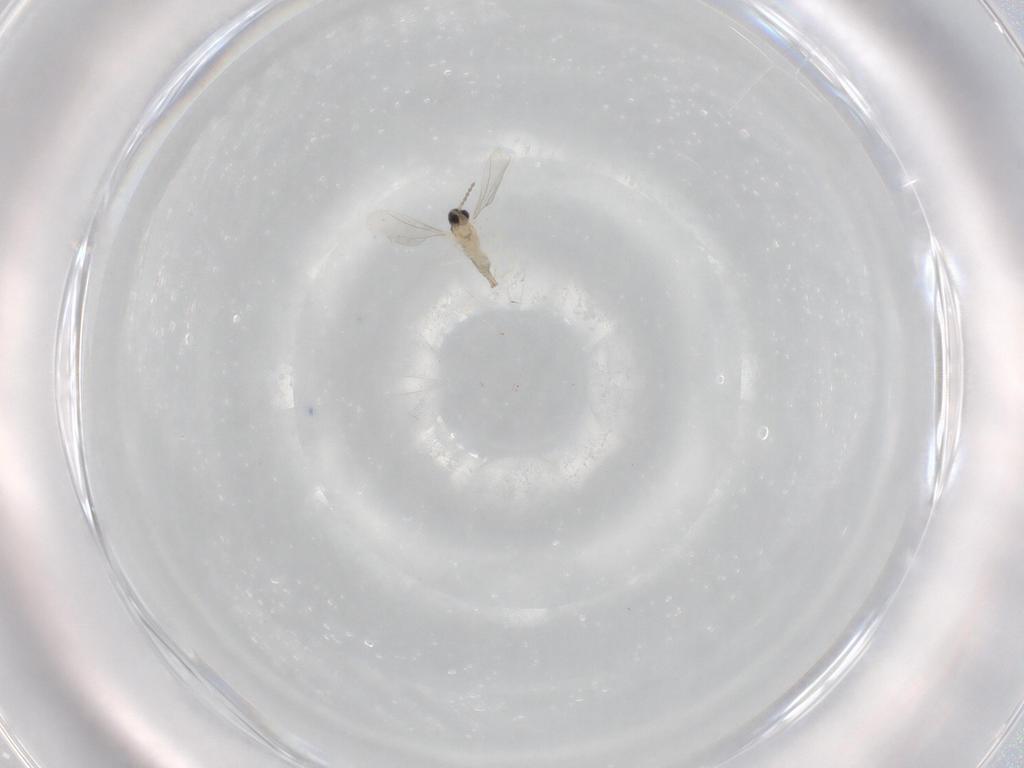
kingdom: Animalia
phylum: Arthropoda
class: Insecta
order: Diptera
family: Cecidomyiidae
